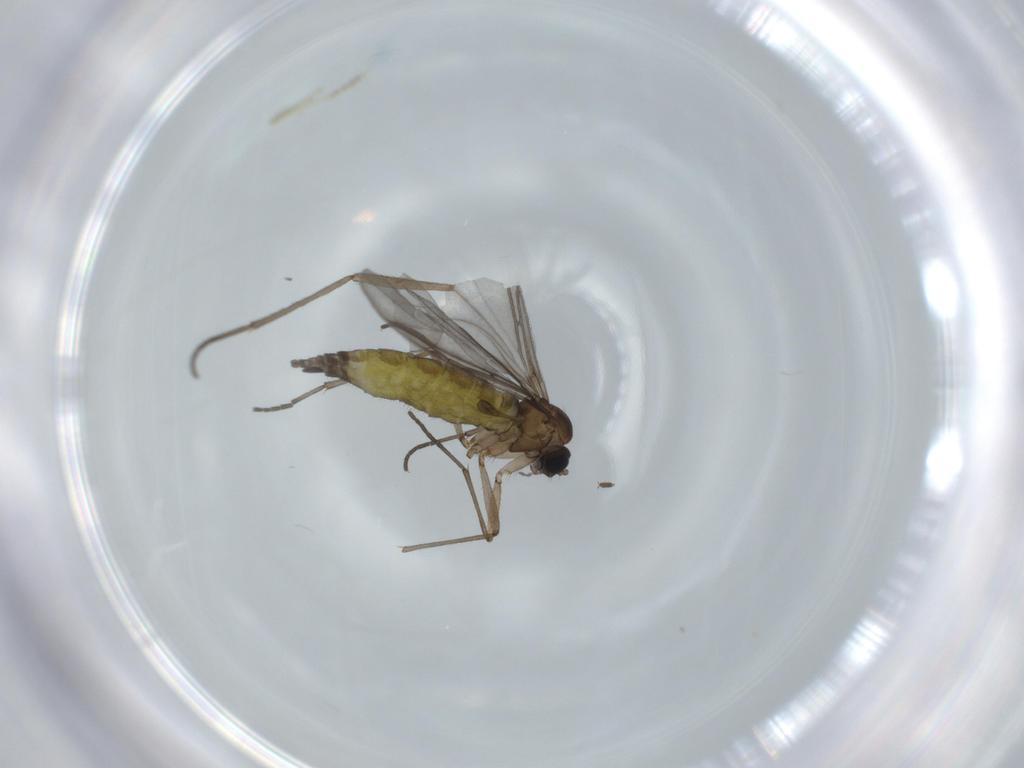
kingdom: Animalia
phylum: Arthropoda
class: Insecta
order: Diptera
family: Sciaridae
